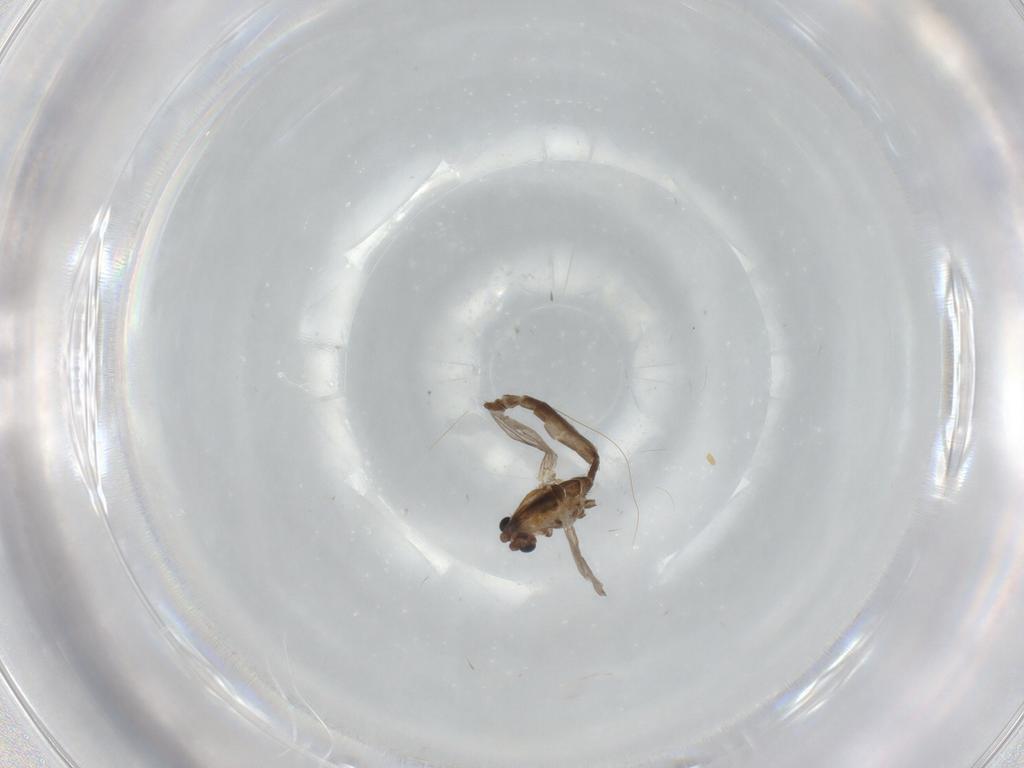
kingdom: Animalia
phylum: Arthropoda
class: Insecta
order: Diptera
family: Chironomidae
